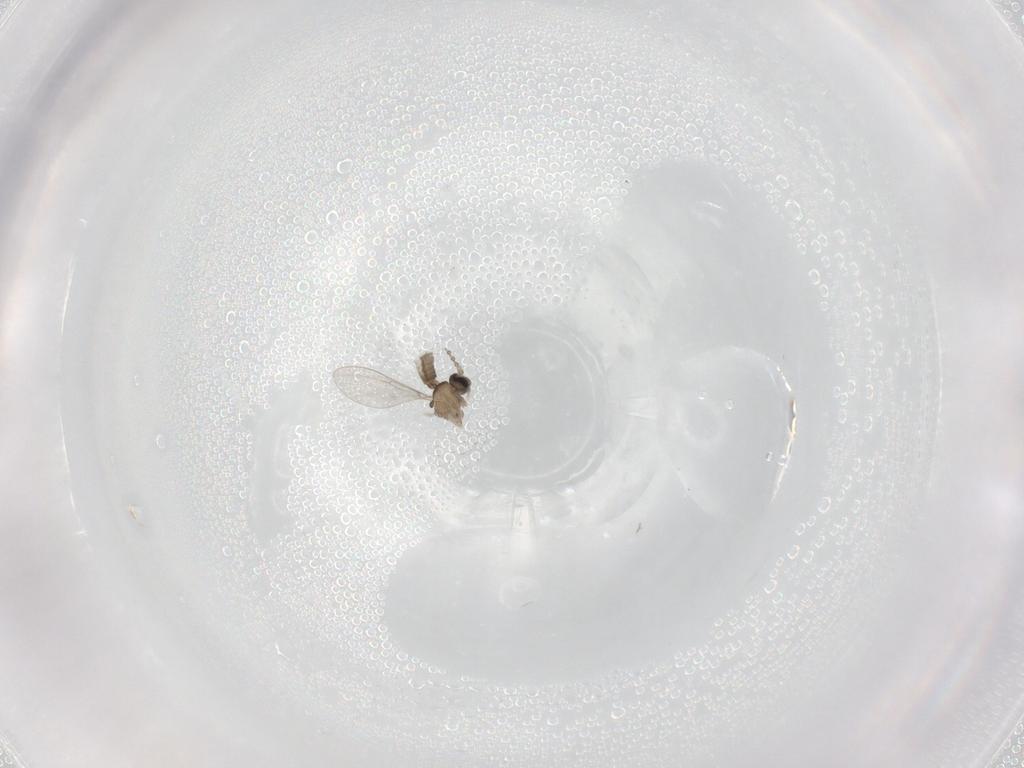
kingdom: Animalia
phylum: Arthropoda
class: Insecta
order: Diptera
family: Cecidomyiidae
